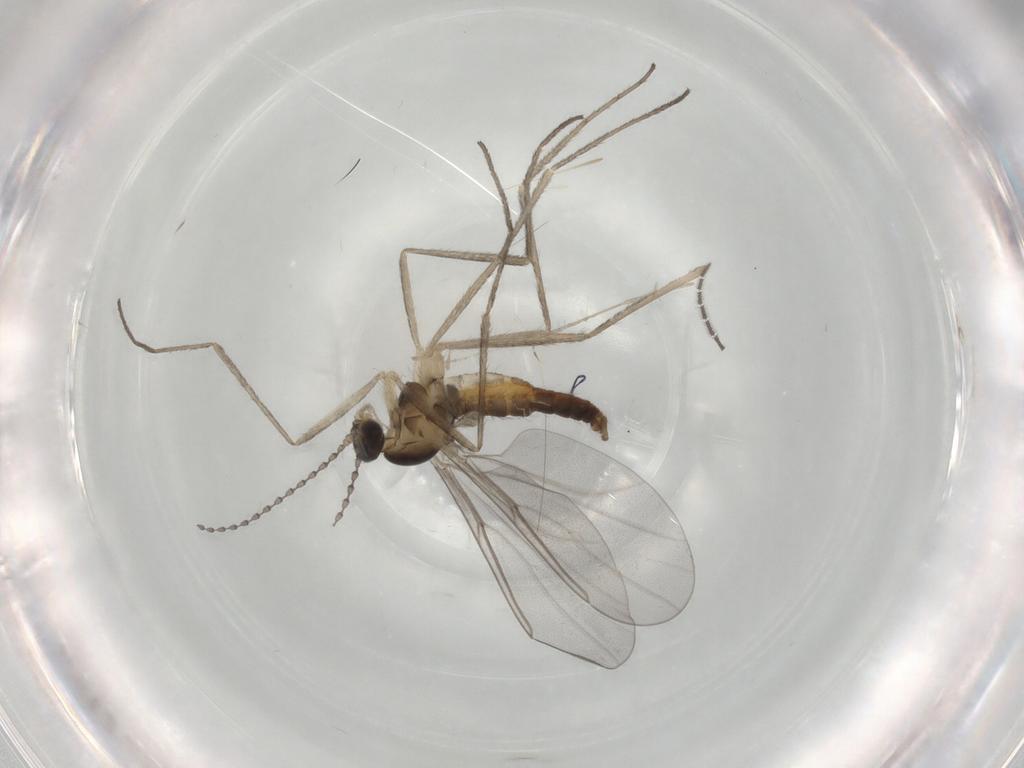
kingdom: Animalia
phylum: Arthropoda
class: Insecta
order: Diptera
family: Cecidomyiidae
